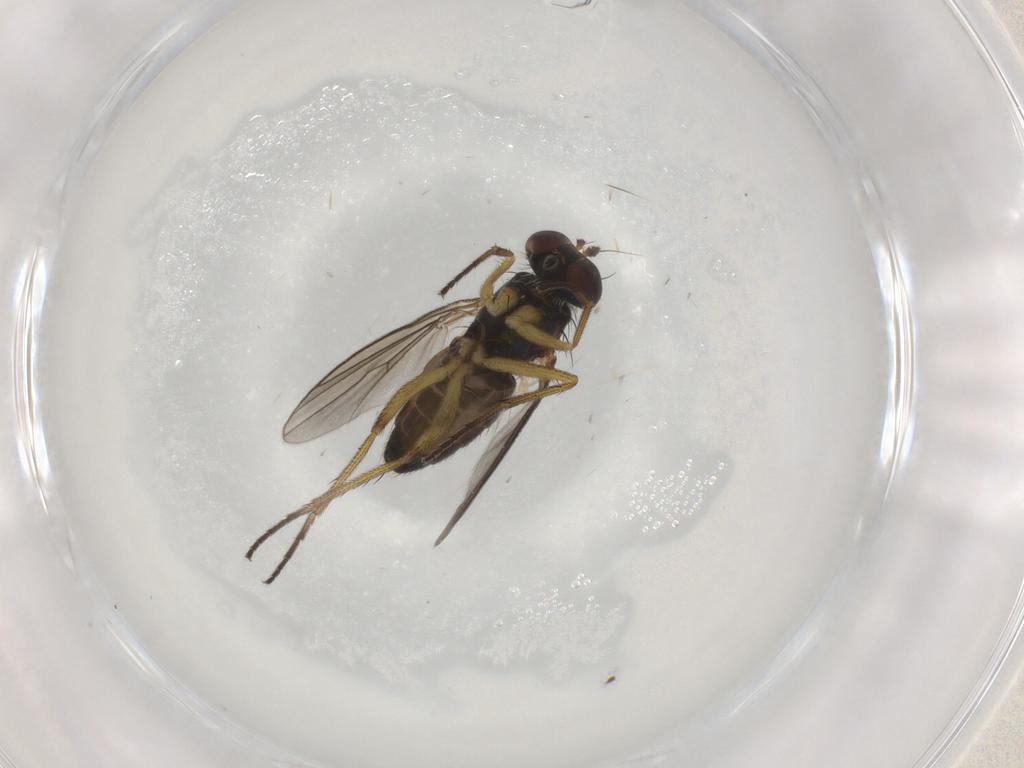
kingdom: Animalia
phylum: Arthropoda
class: Insecta
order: Diptera
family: Dolichopodidae
